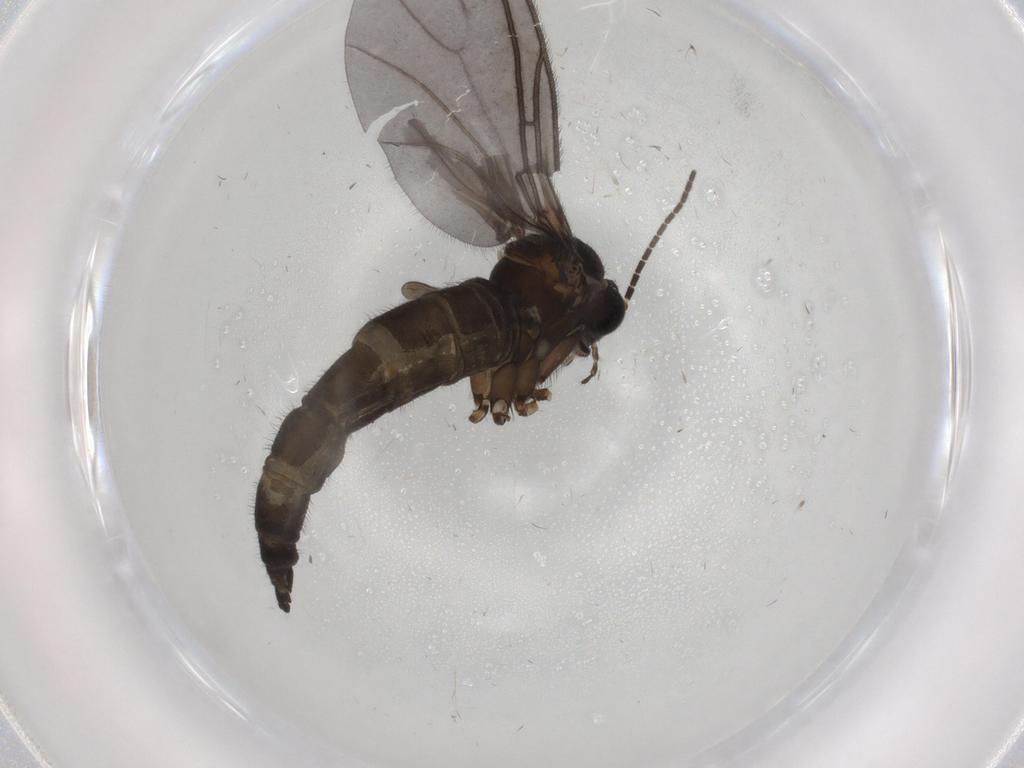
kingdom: Animalia
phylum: Arthropoda
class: Insecta
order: Diptera
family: Sciaridae
